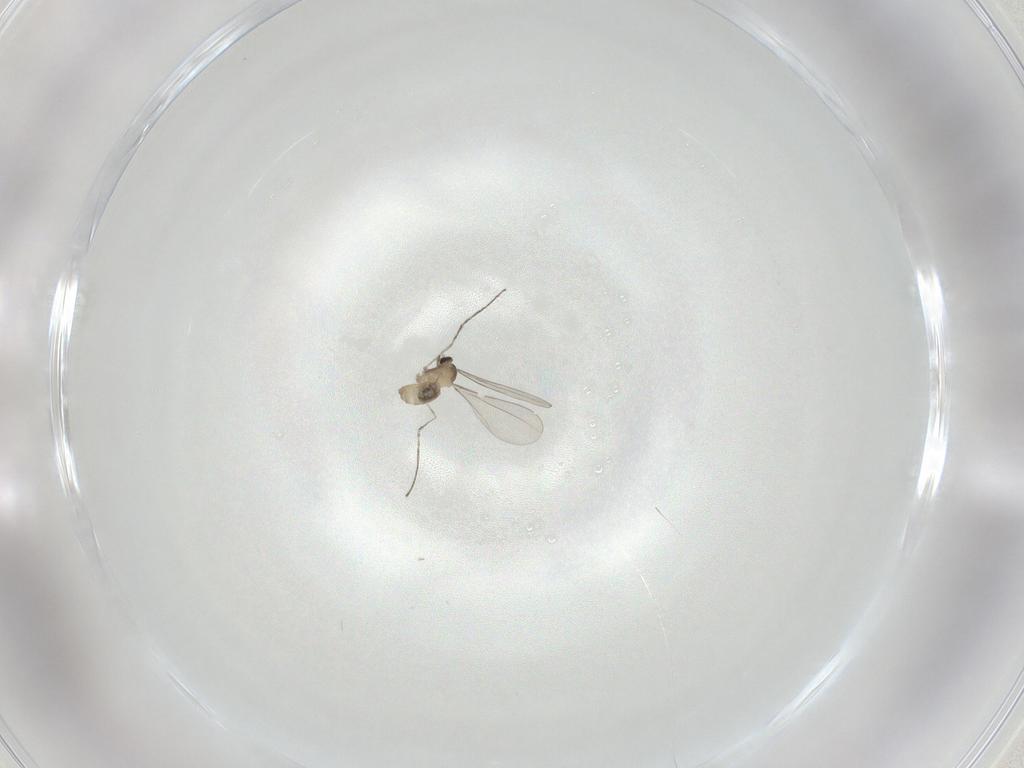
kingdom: Animalia
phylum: Arthropoda
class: Insecta
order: Diptera
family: Cecidomyiidae
